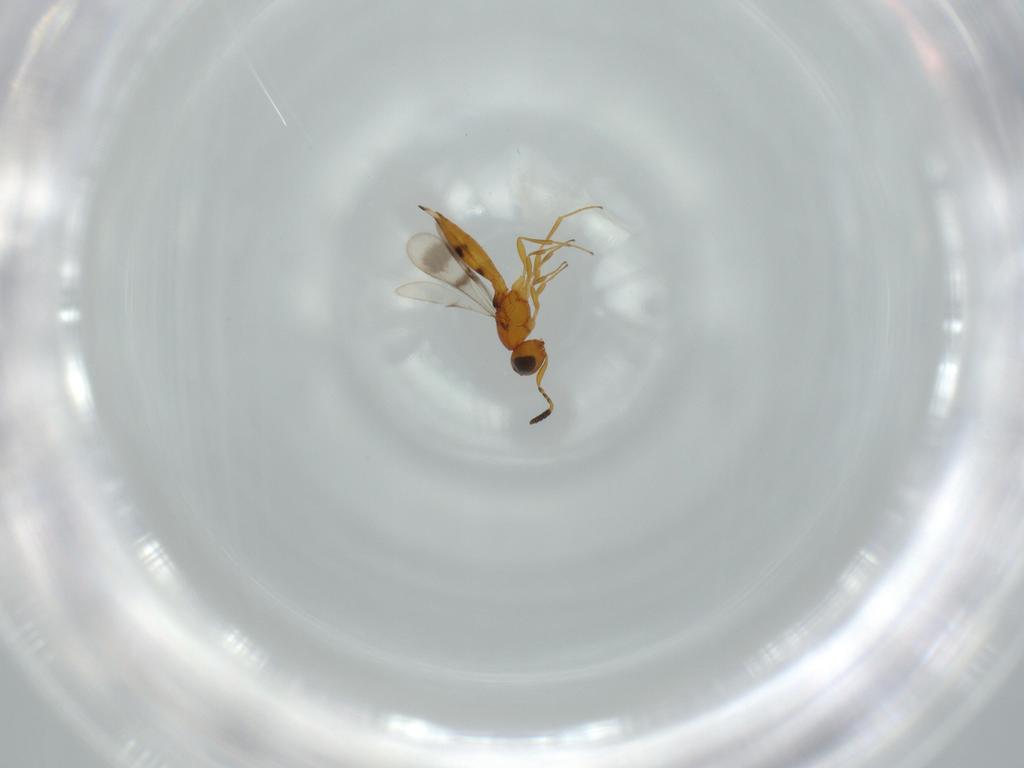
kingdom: Animalia
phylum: Arthropoda
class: Insecta
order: Hymenoptera
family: Scelionidae
